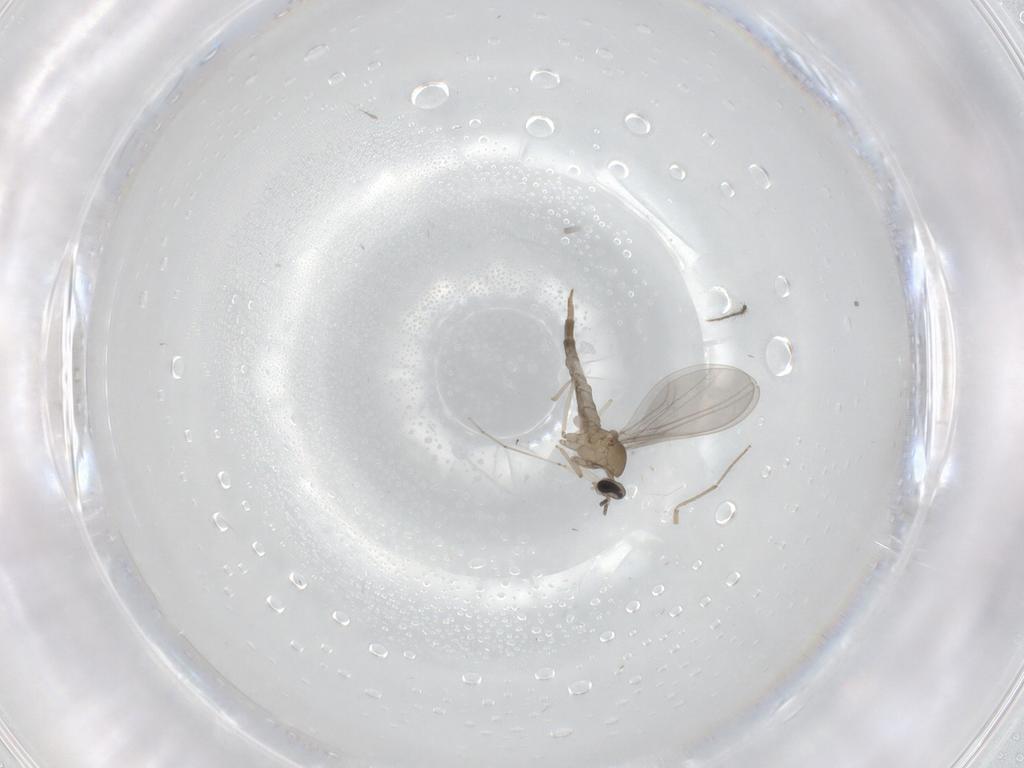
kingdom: Animalia
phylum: Arthropoda
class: Insecta
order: Diptera
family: Cecidomyiidae
